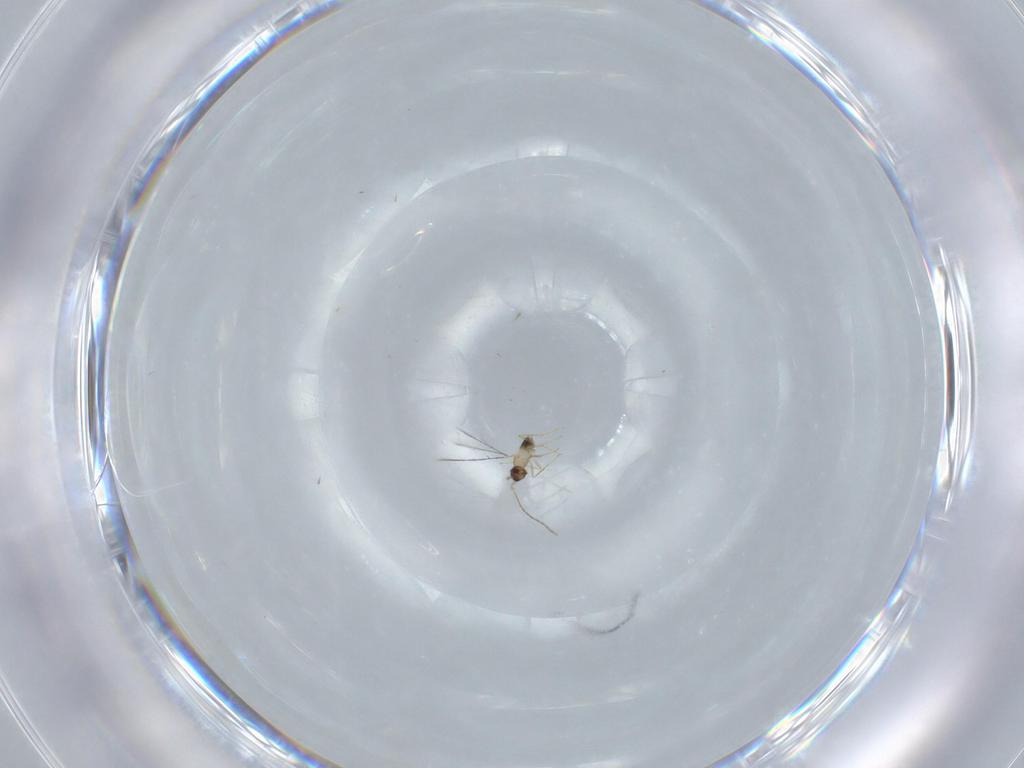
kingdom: Animalia
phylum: Arthropoda
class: Insecta
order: Hymenoptera
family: Mymaridae
